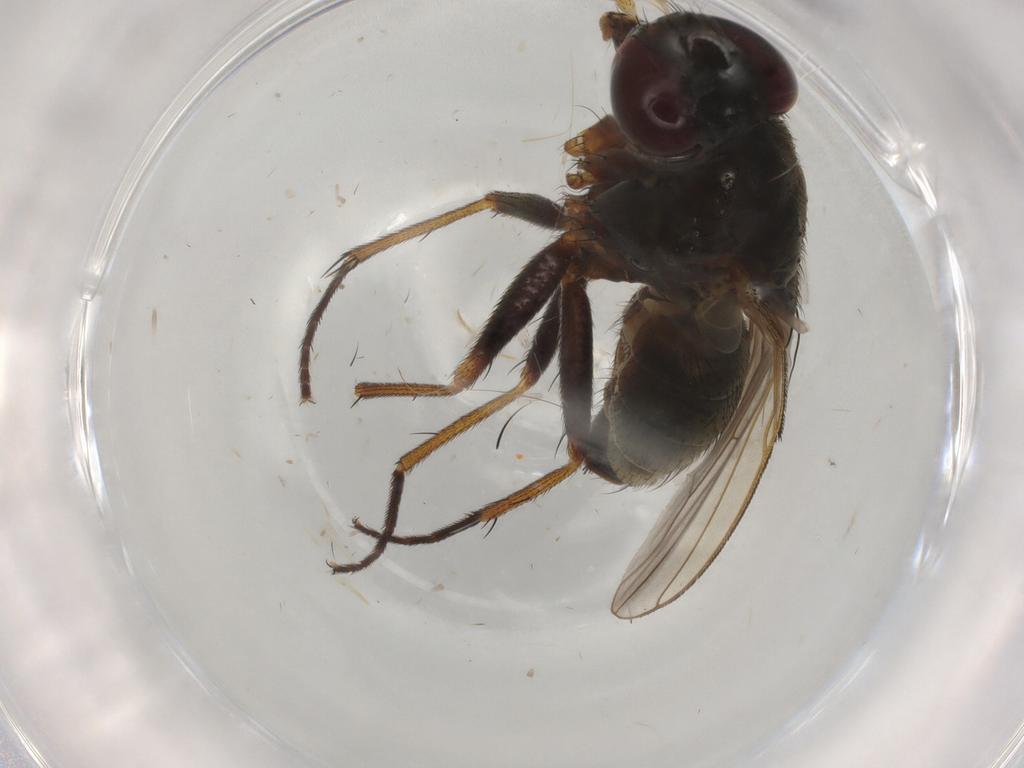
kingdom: Animalia
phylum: Arthropoda
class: Insecta
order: Diptera
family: Muscidae
